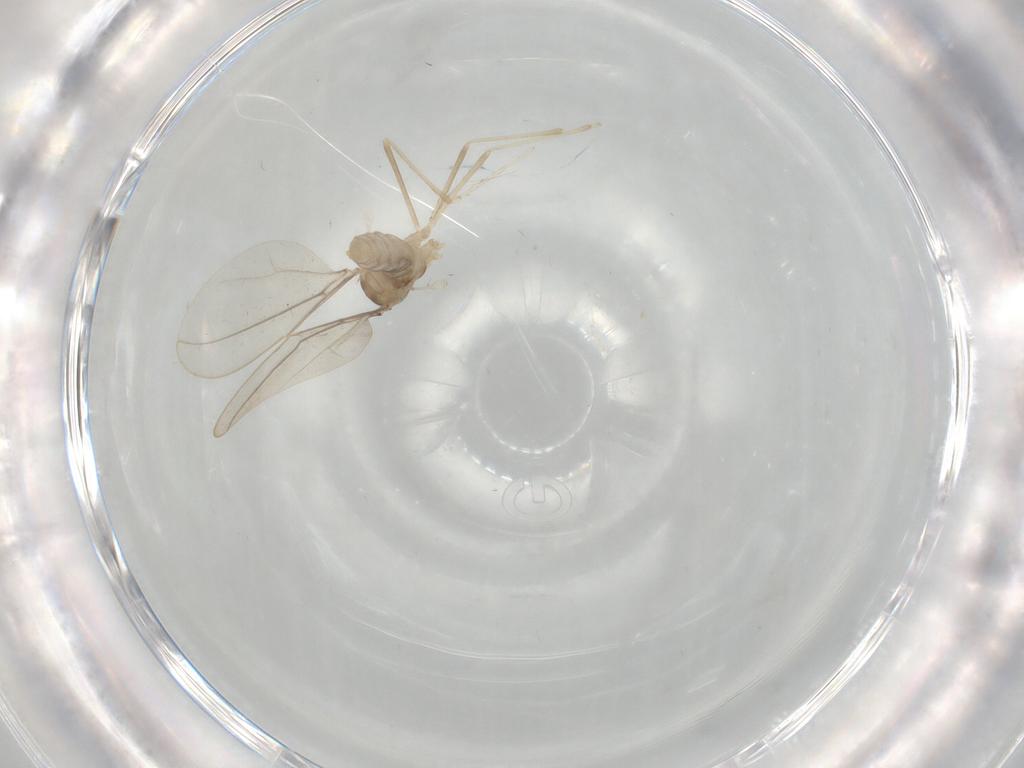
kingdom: Animalia
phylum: Arthropoda
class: Insecta
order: Diptera
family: Cecidomyiidae
